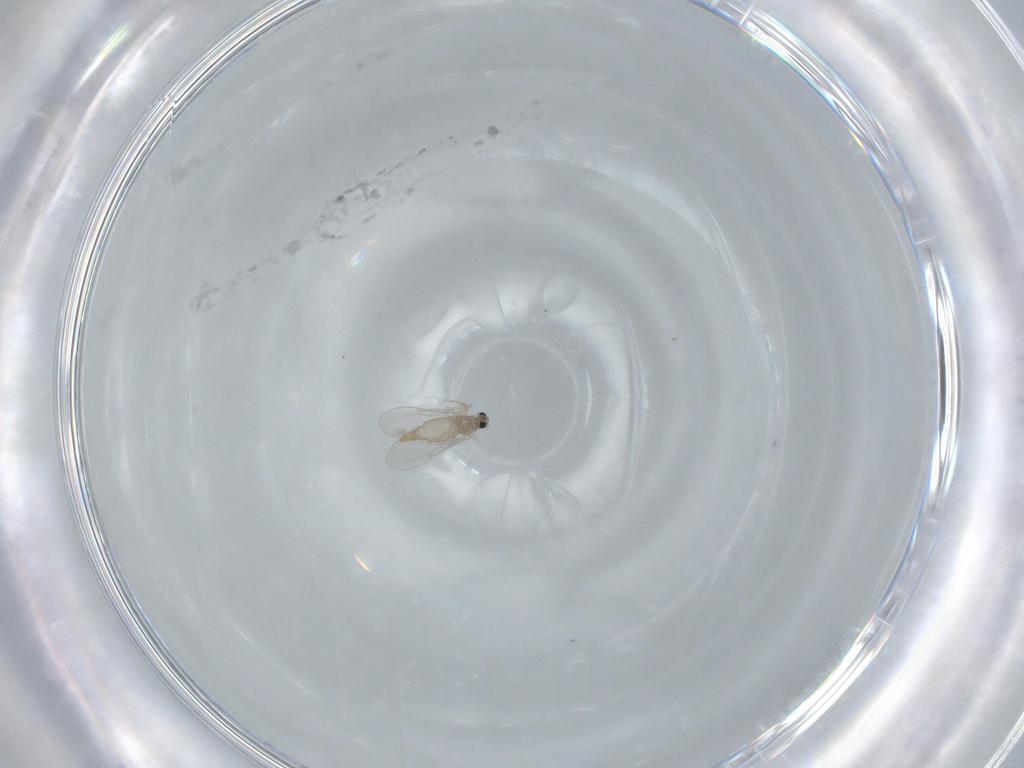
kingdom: Animalia
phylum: Arthropoda
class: Insecta
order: Diptera
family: Cecidomyiidae
